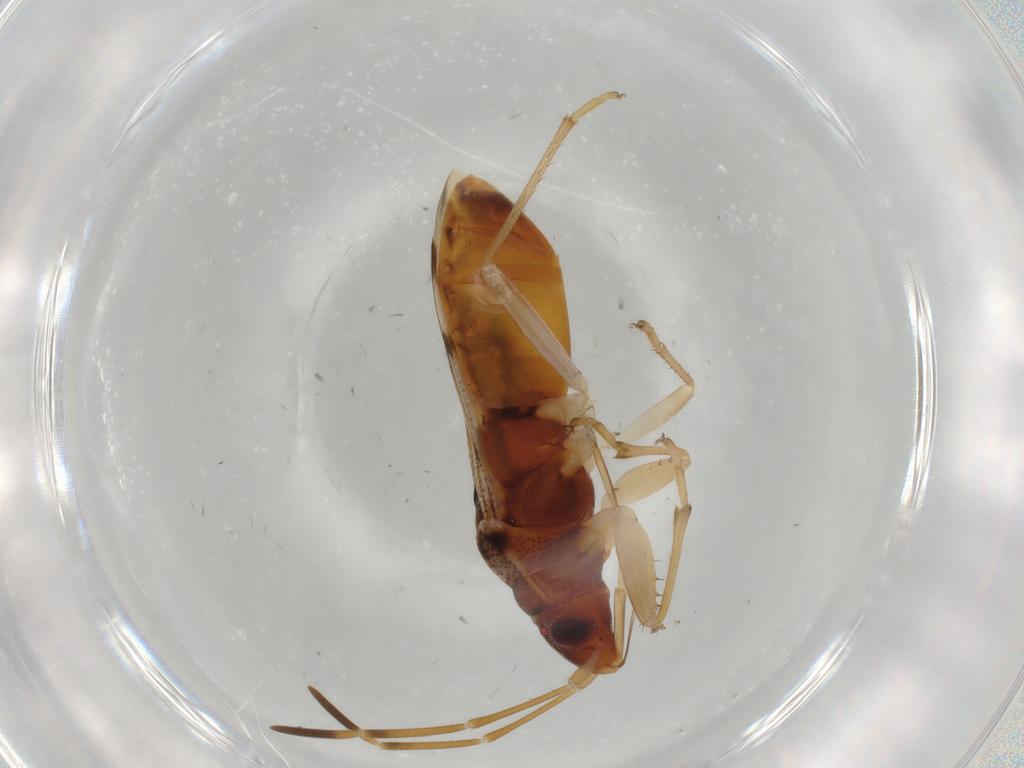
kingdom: Animalia
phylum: Arthropoda
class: Insecta
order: Hemiptera
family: Rhyparochromidae
